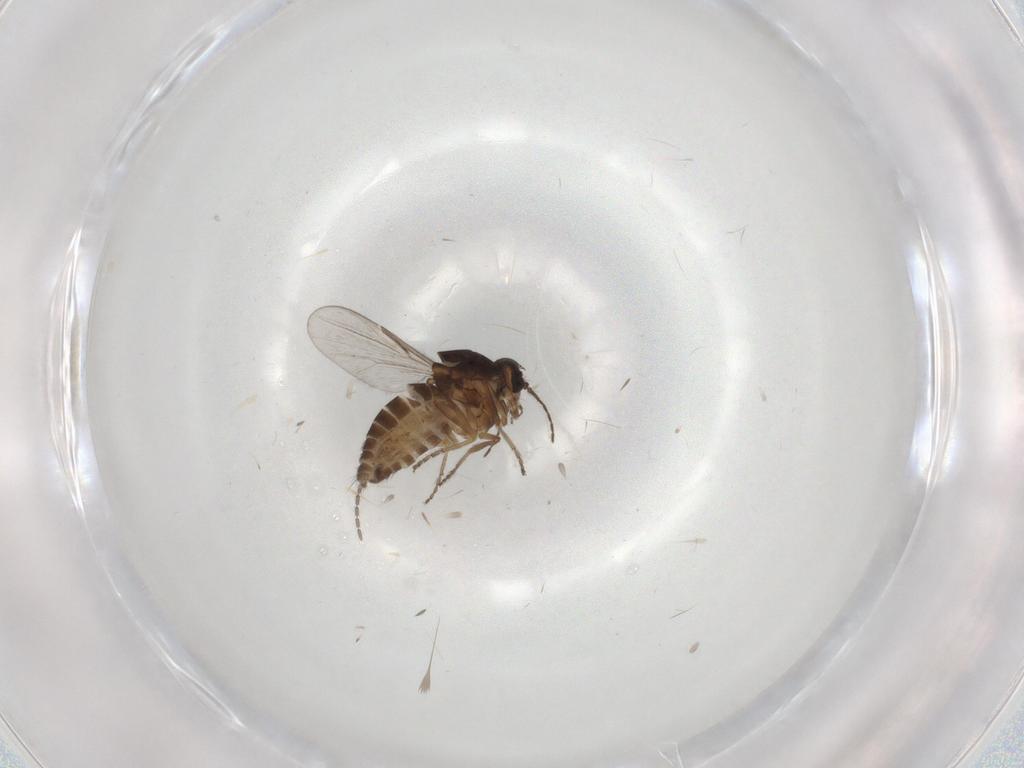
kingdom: Animalia
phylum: Arthropoda
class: Insecta
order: Diptera
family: Ceratopogonidae
